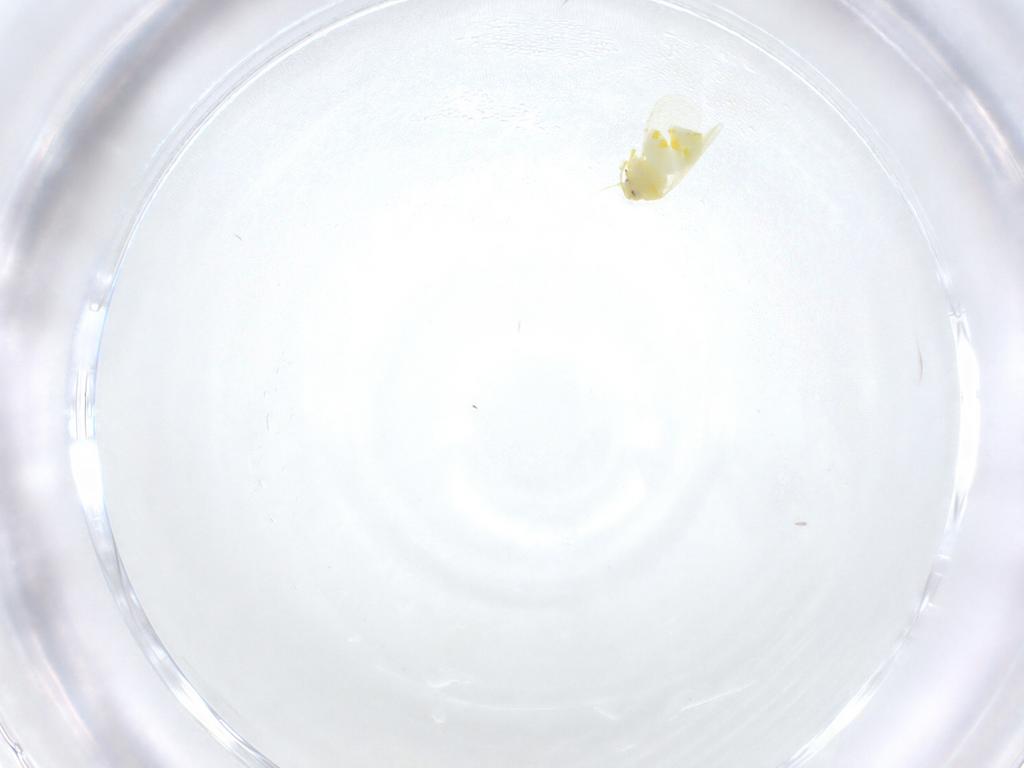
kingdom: Animalia
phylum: Arthropoda
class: Insecta
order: Hemiptera
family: Aleyrodidae
